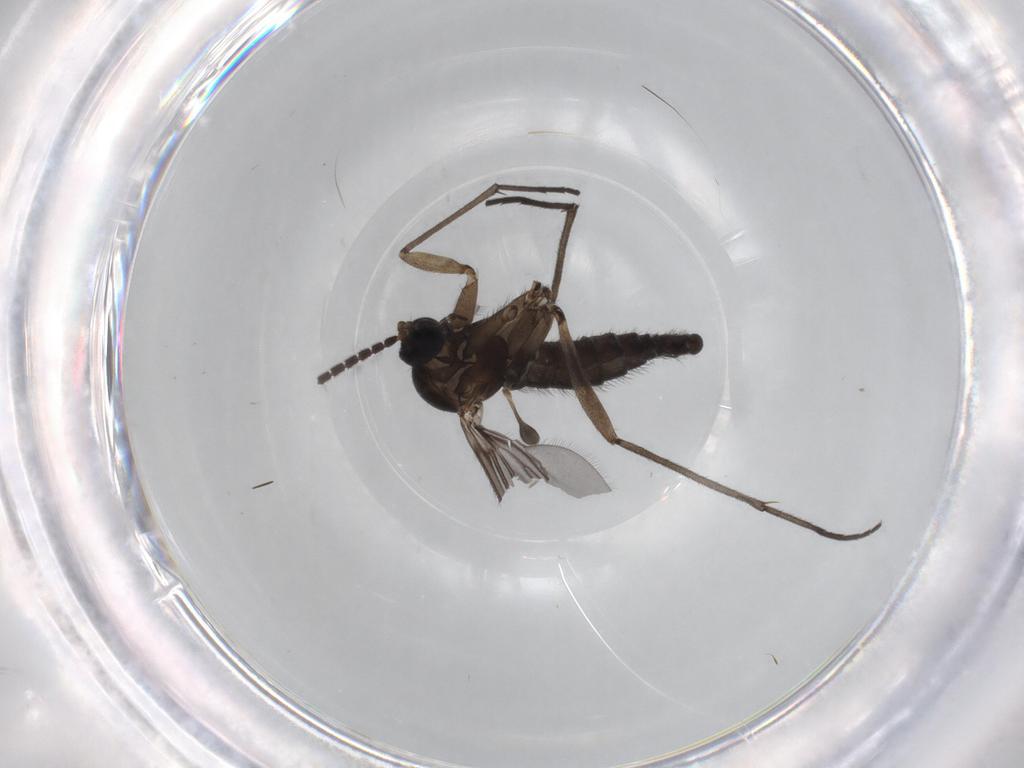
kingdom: Animalia
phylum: Arthropoda
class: Insecta
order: Diptera
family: Sciaridae
